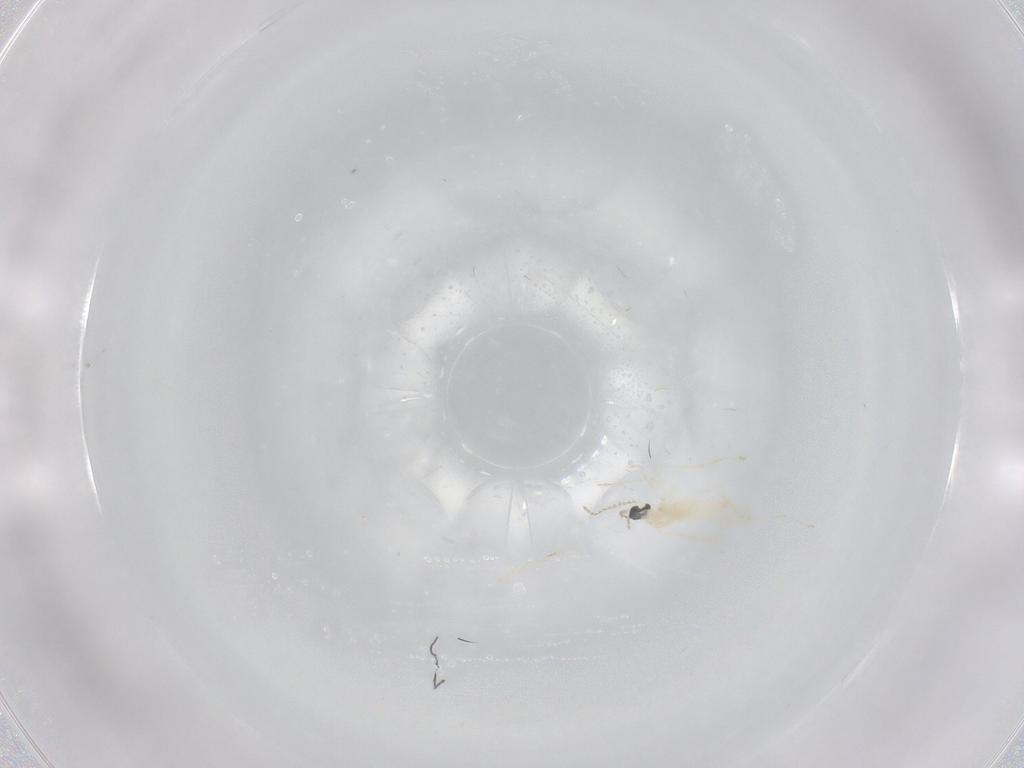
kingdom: Animalia
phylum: Arthropoda
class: Insecta
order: Diptera
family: Cecidomyiidae
